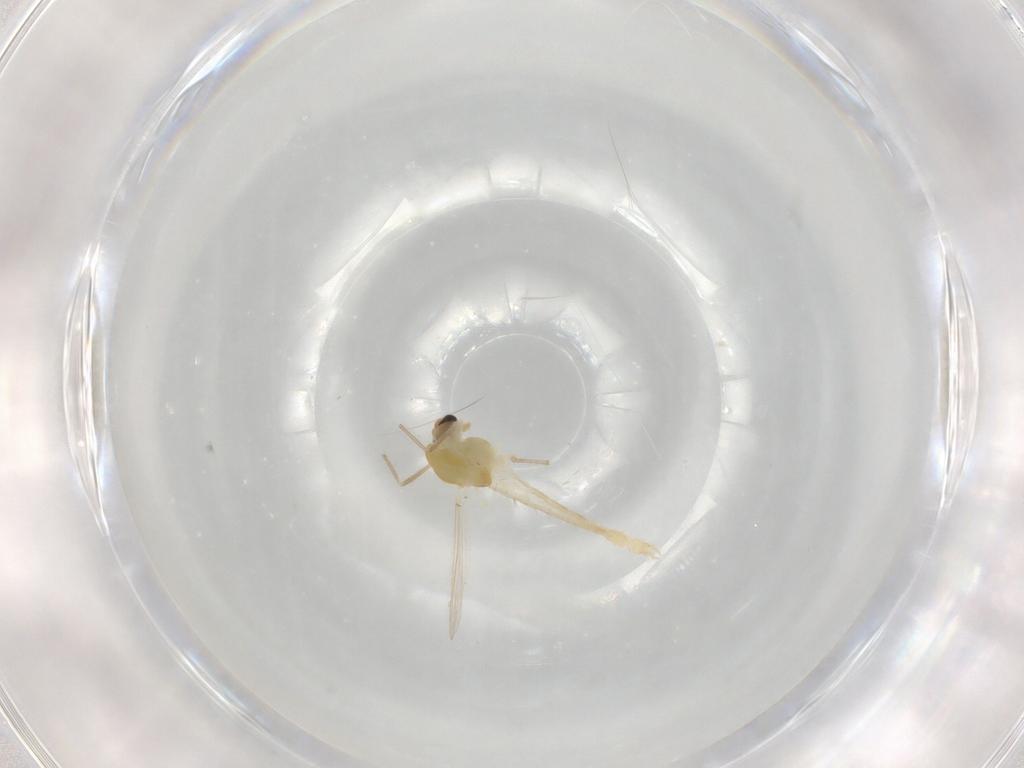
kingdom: Animalia
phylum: Arthropoda
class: Insecta
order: Diptera
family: Chironomidae
